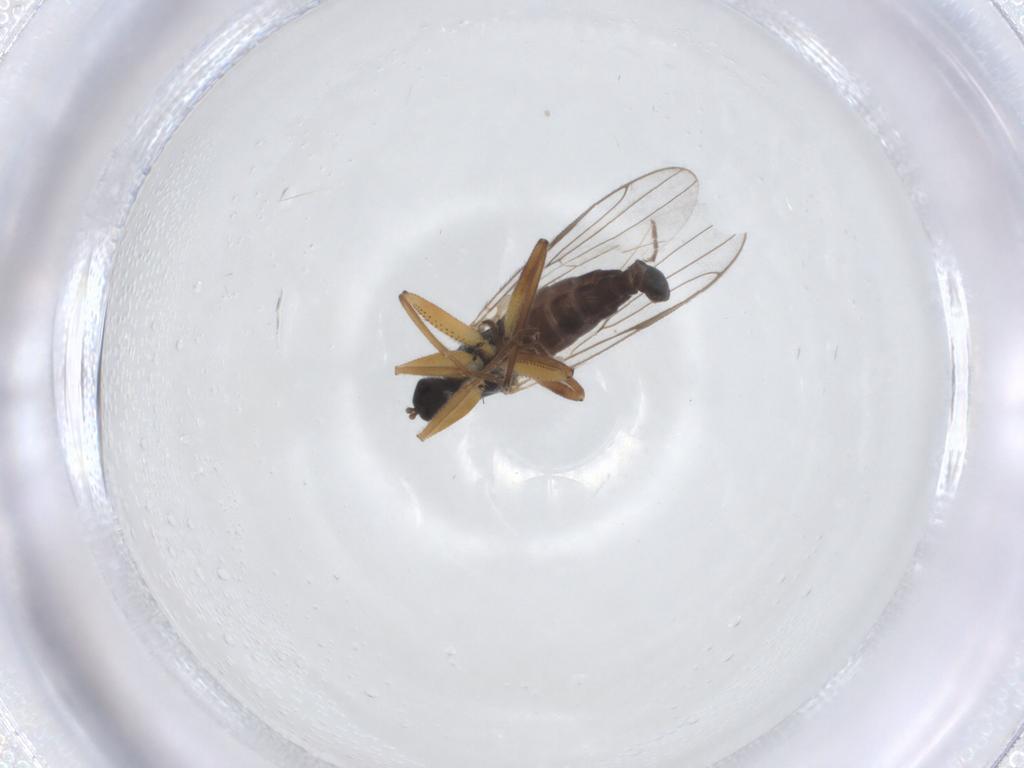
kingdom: Animalia
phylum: Arthropoda
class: Insecta
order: Diptera
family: Hybotidae
